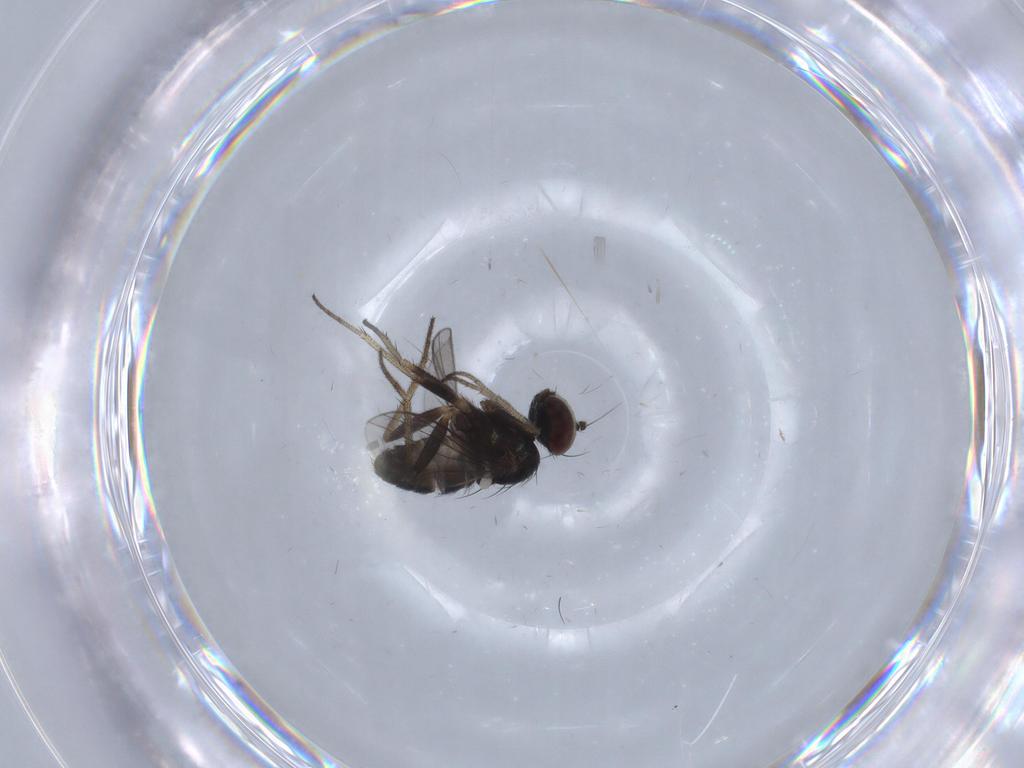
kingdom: Animalia
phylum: Arthropoda
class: Insecta
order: Diptera
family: Dolichopodidae
